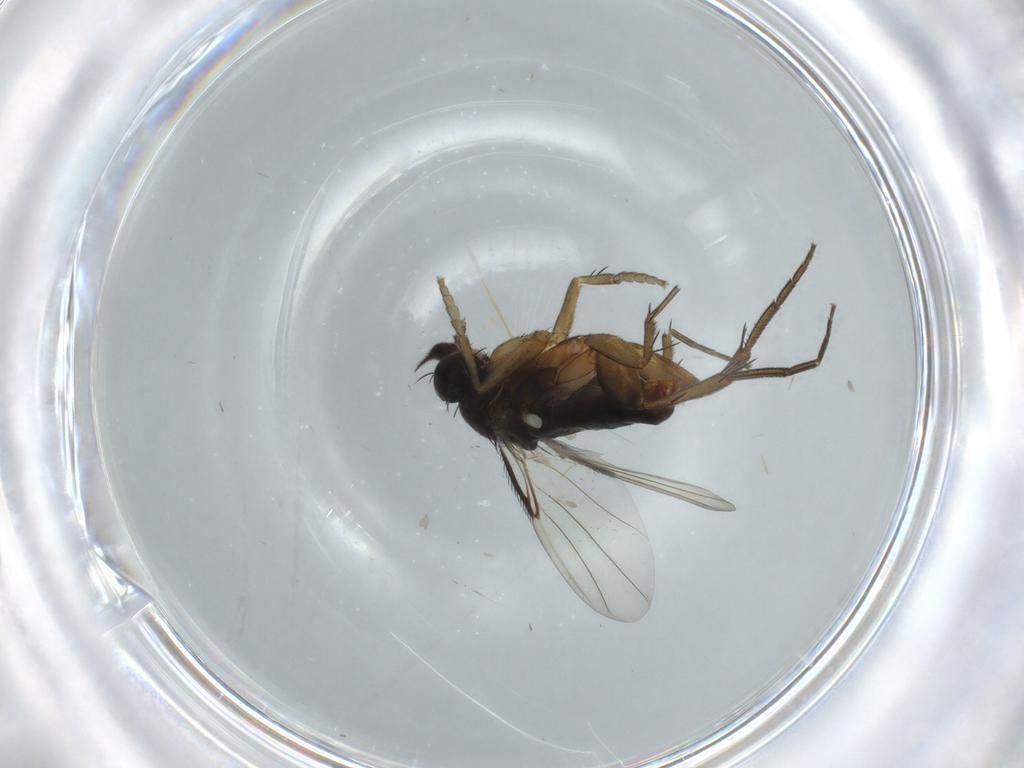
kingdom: Animalia
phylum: Arthropoda
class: Insecta
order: Diptera
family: Phoridae
